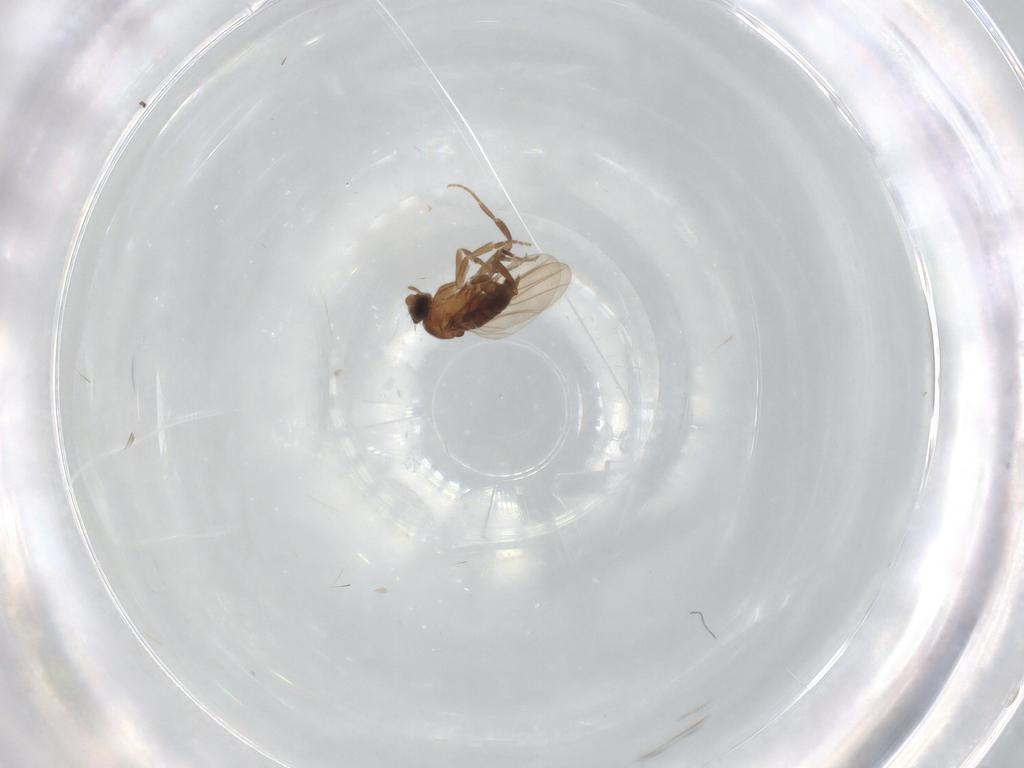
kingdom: Animalia
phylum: Arthropoda
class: Insecta
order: Diptera
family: Phoridae
